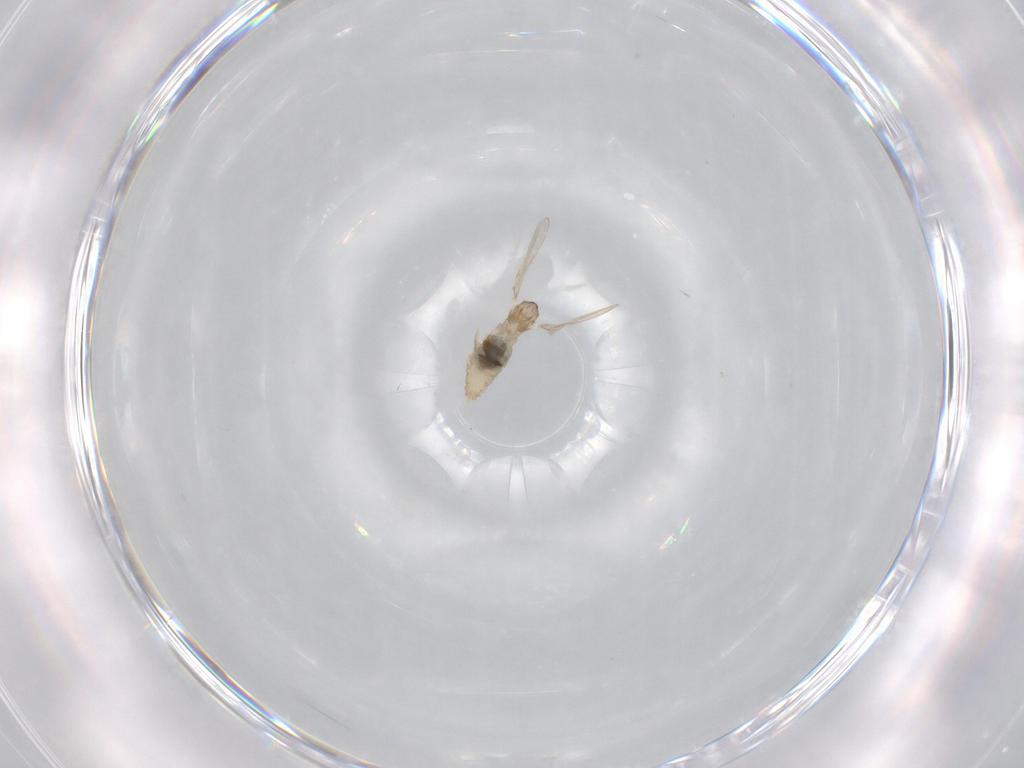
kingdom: Animalia
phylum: Arthropoda
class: Insecta
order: Diptera
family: Cecidomyiidae
